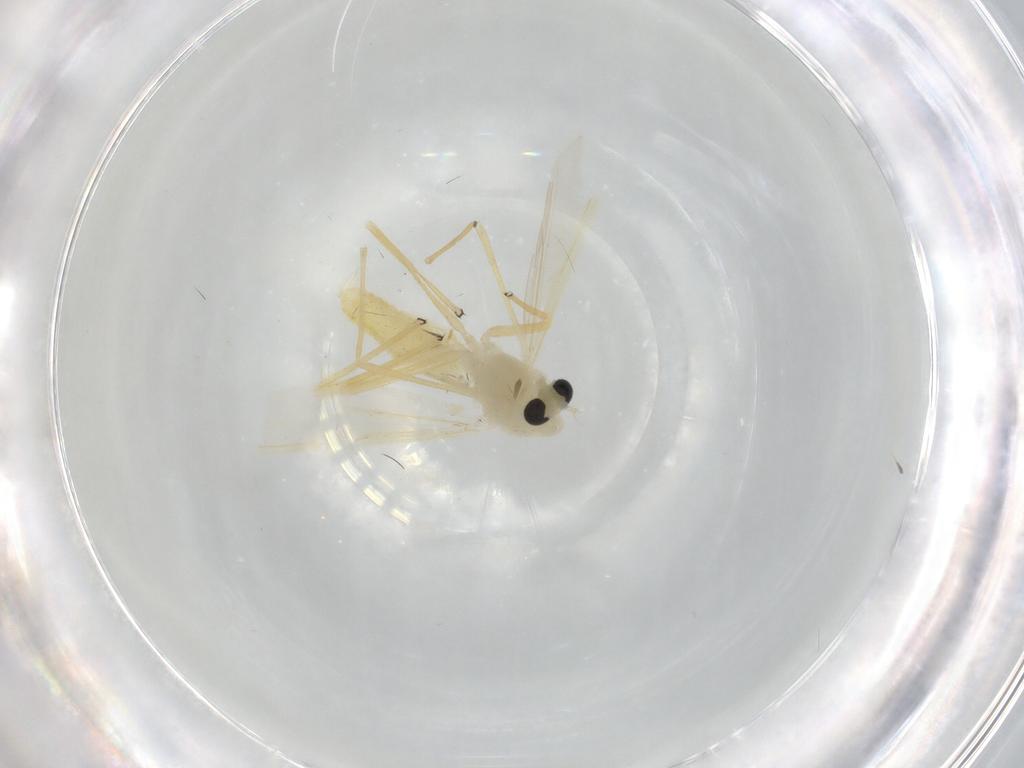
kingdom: Animalia
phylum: Arthropoda
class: Insecta
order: Diptera
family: Chironomidae
